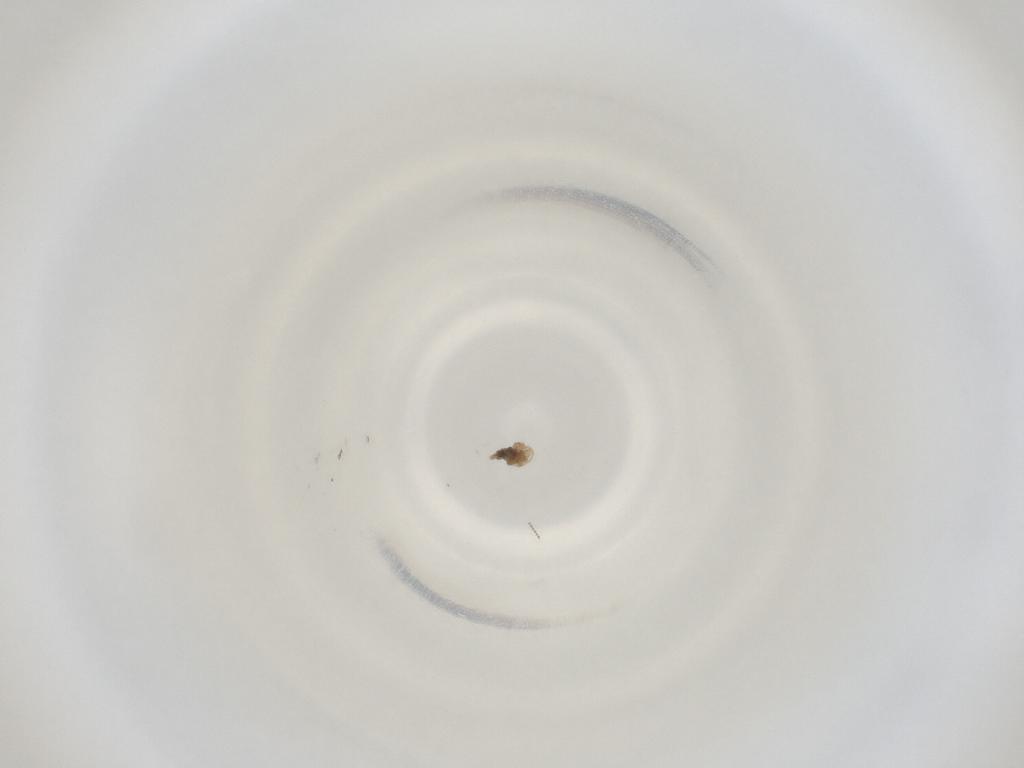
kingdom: Animalia
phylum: Arthropoda
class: Insecta
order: Diptera
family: Cecidomyiidae
